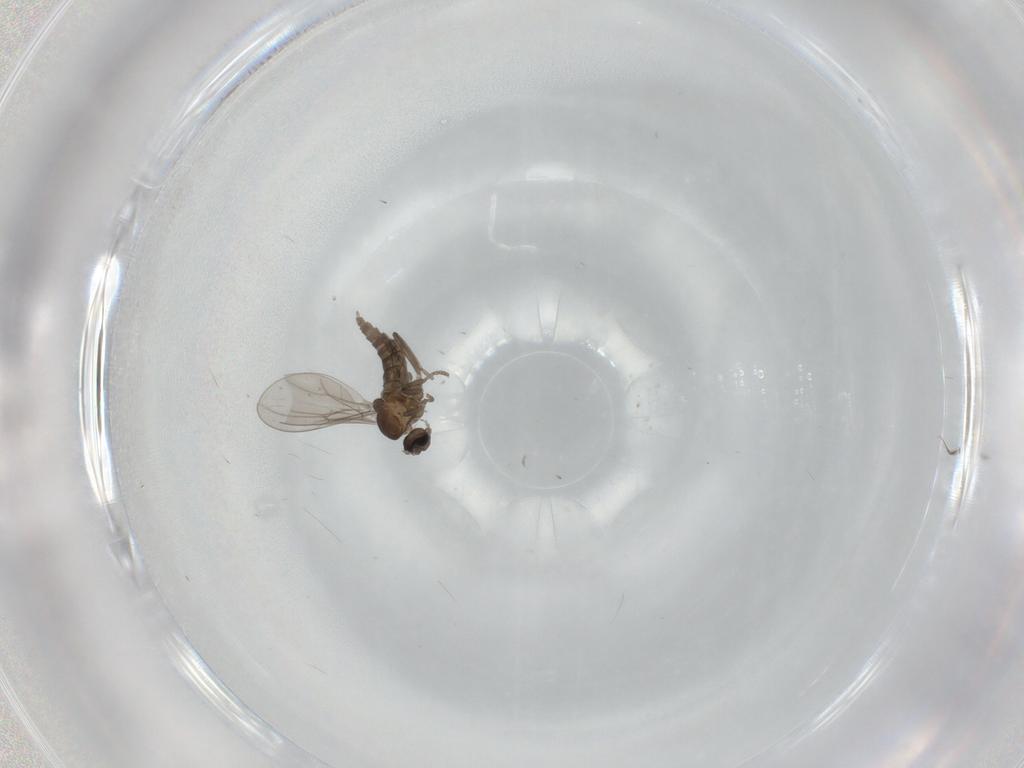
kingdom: Animalia
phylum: Arthropoda
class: Insecta
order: Diptera
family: Cecidomyiidae
